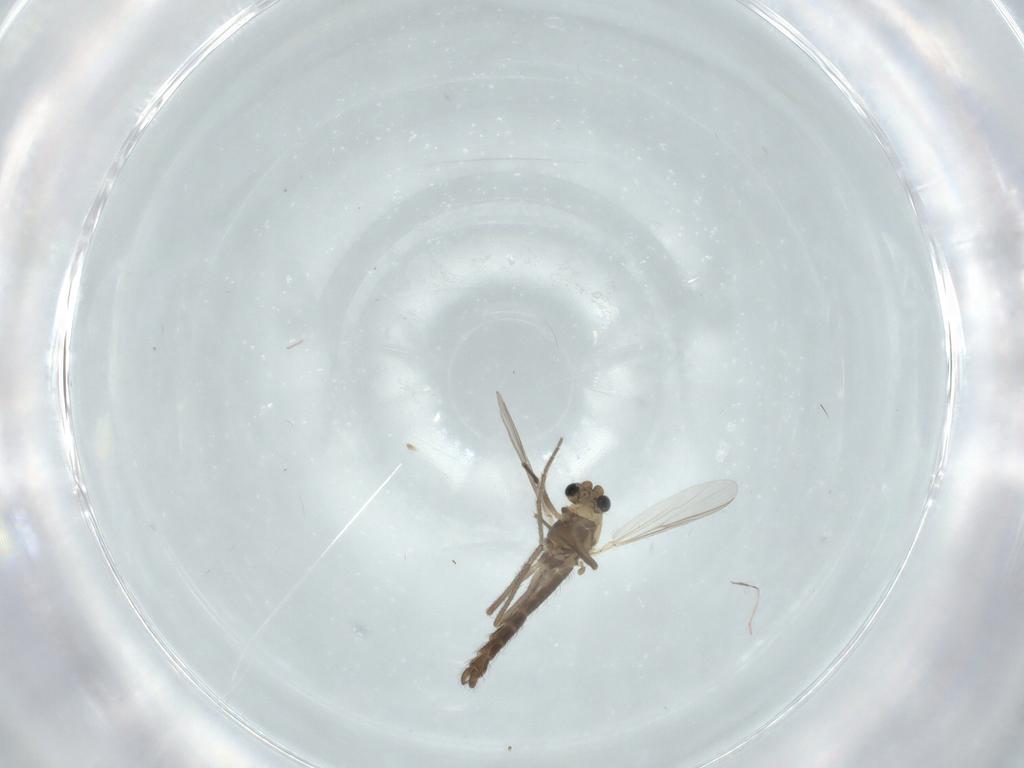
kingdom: Animalia
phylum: Arthropoda
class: Insecta
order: Diptera
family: Chironomidae
